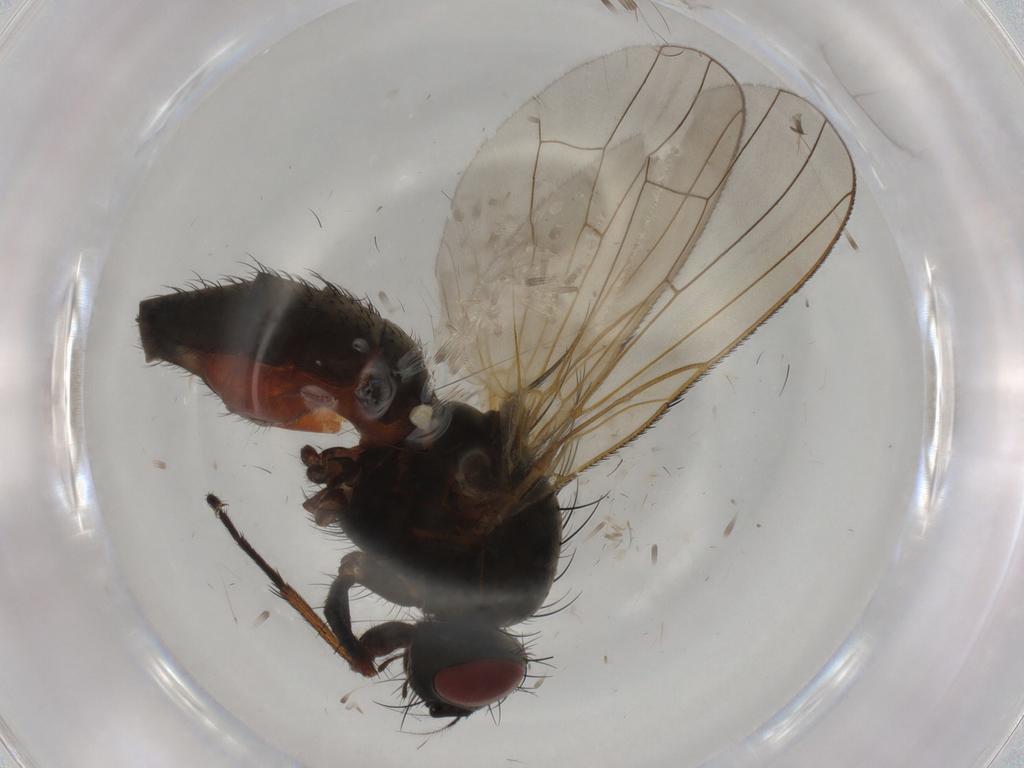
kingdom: Animalia
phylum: Arthropoda
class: Insecta
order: Diptera
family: Anthomyiidae
